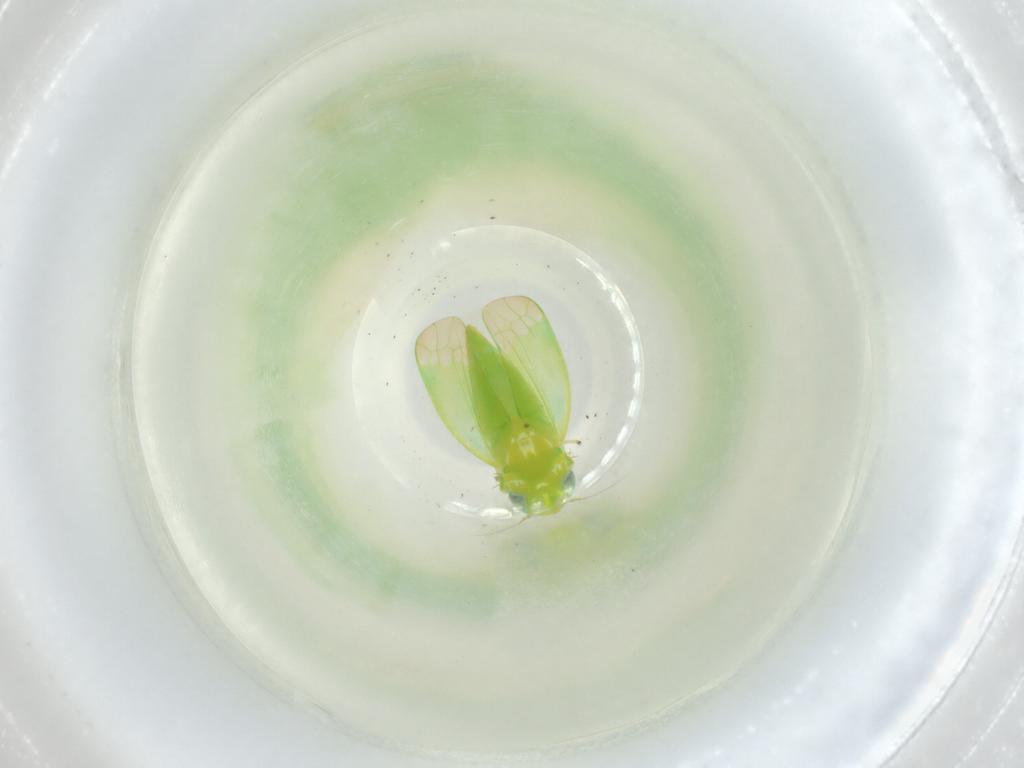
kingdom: Animalia
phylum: Arthropoda
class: Insecta
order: Hemiptera
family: Cicadellidae
